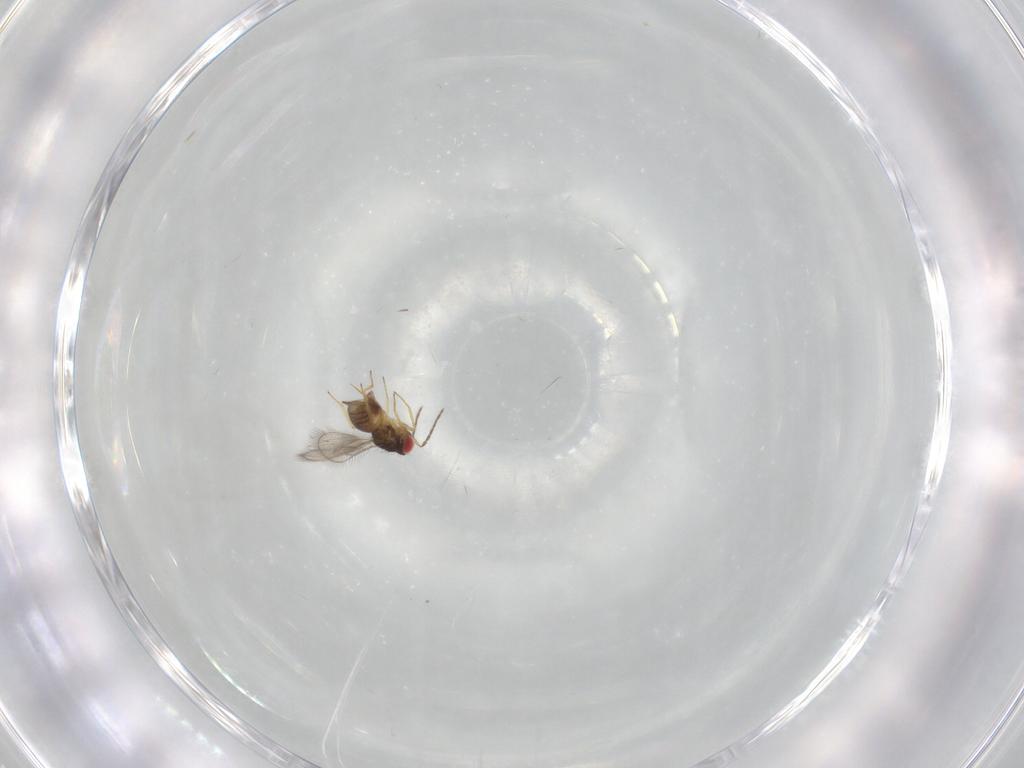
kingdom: Animalia
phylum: Arthropoda
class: Insecta
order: Hymenoptera
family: Eulophidae
